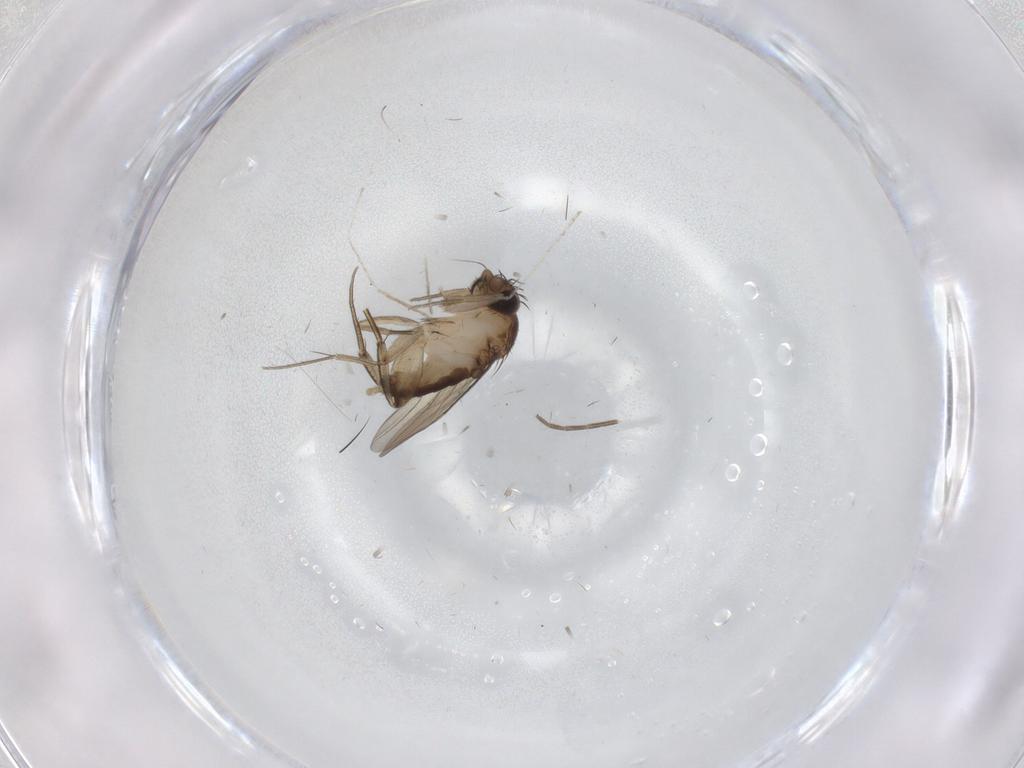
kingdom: Animalia
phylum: Arthropoda
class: Insecta
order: Diptera
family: Phoridae
